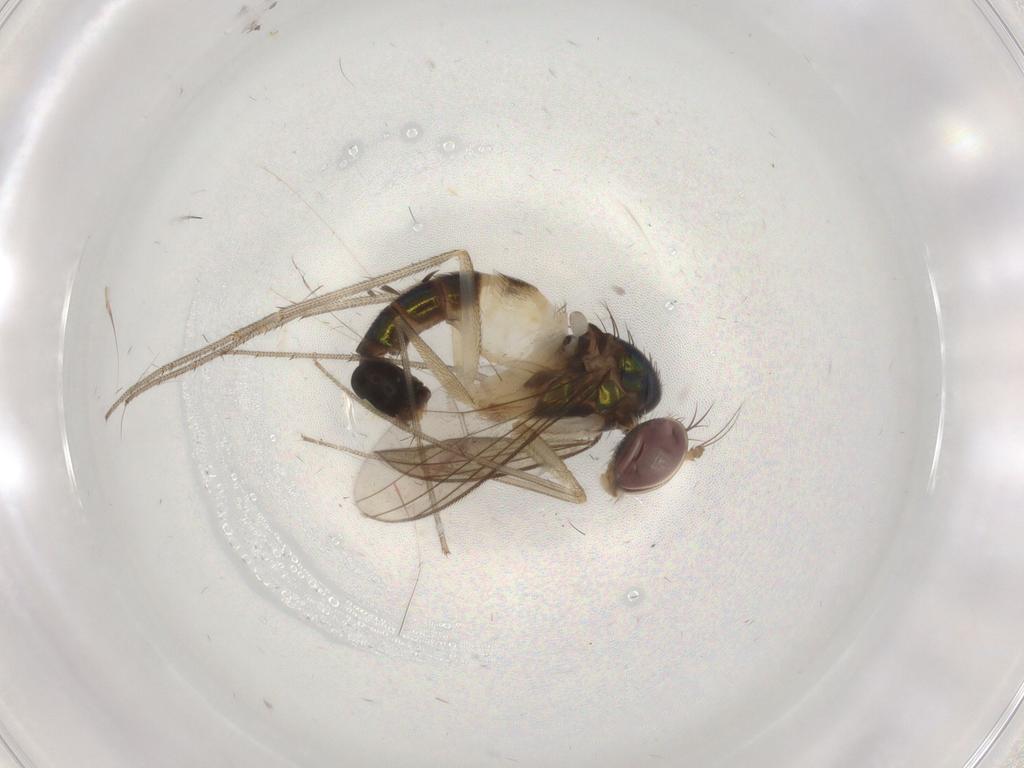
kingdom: Animalia
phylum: Arthropoda
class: Insecta
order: Diptera
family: Dolichopodidae
